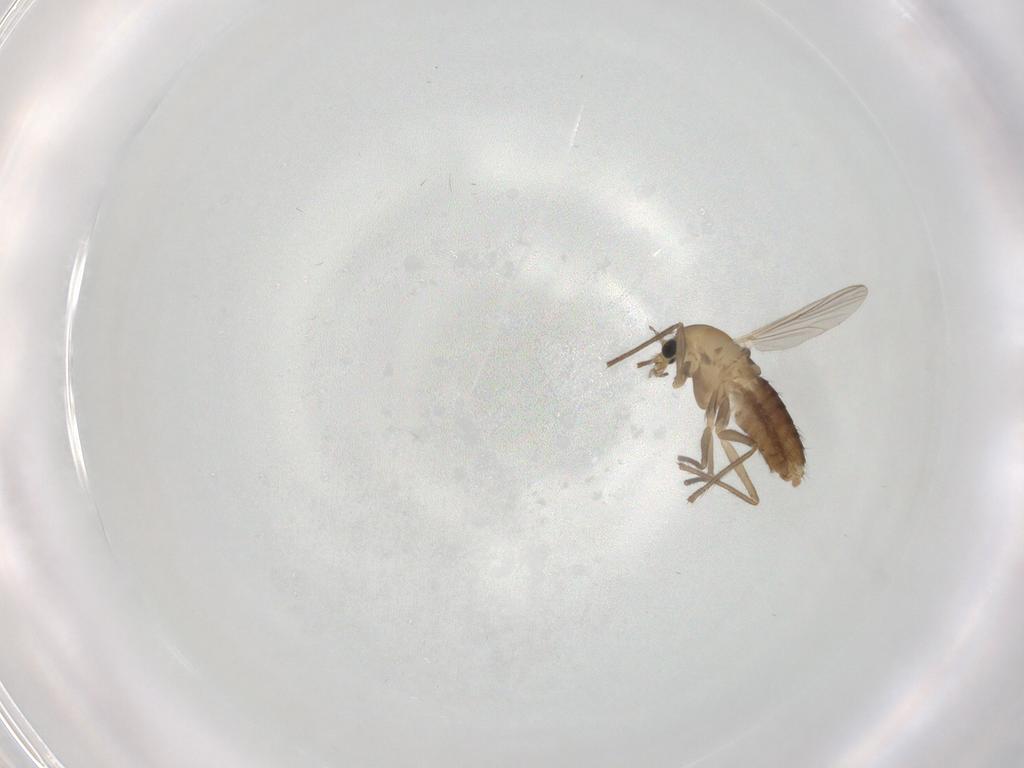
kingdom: Animalia
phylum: Arthropoda
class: Insecta
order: Diptera
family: Chironomidae
